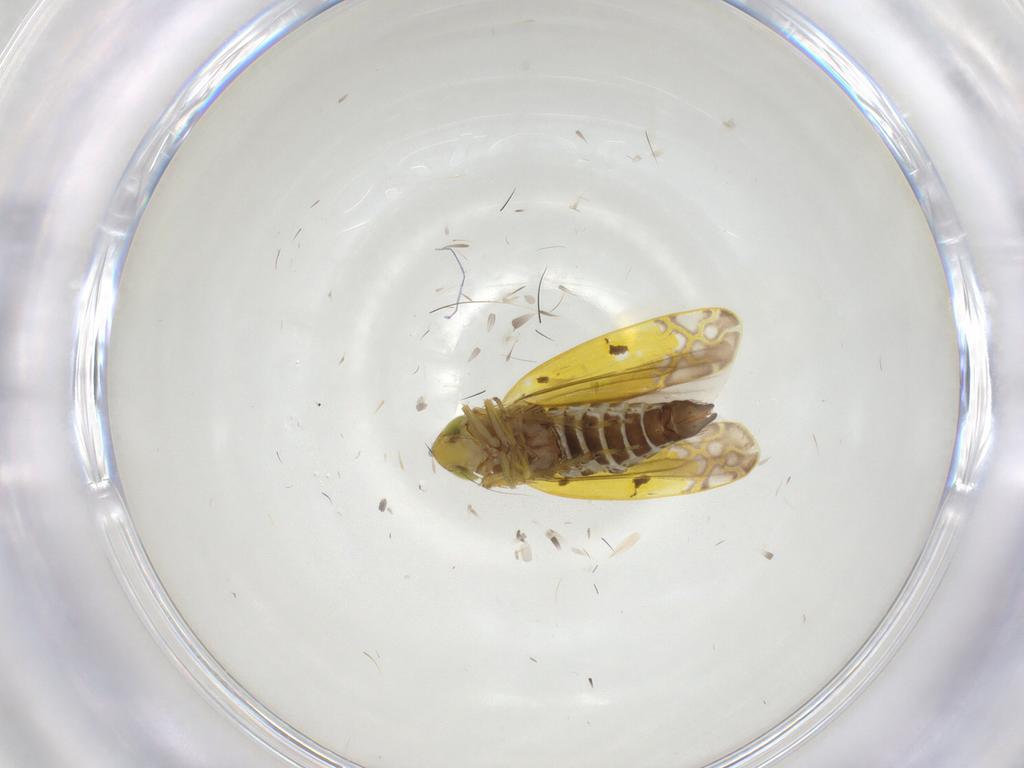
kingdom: Animalia
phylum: Arthropoda
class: Insecta
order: Hemiptera
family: Cicadellidae
